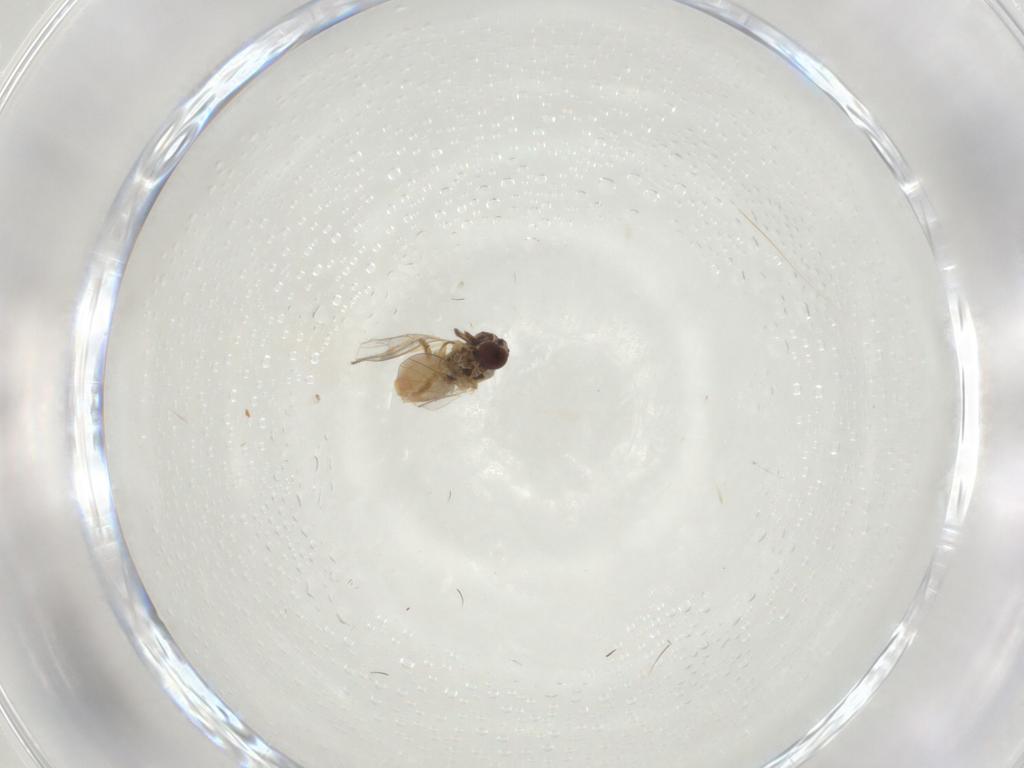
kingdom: Animalia
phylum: Arthropoda
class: Insecta
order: Diptera
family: Bombyliidae
